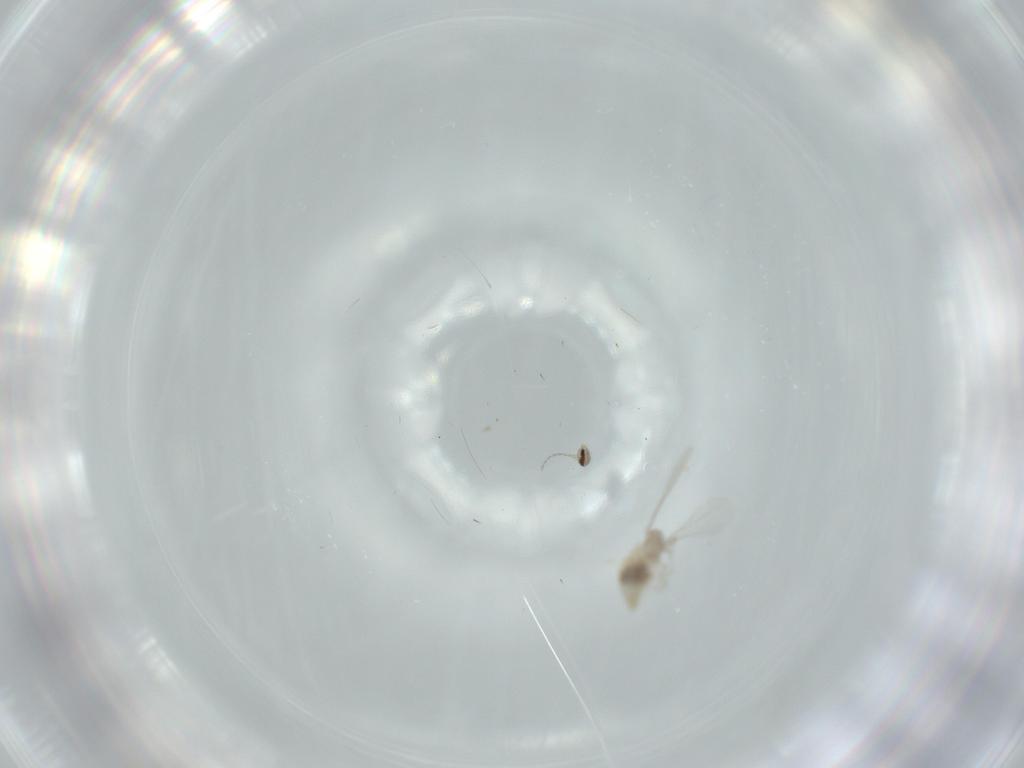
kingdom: Animalia
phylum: Arthropoda
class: Insecta
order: Diptera
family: Cecidomyiidae
